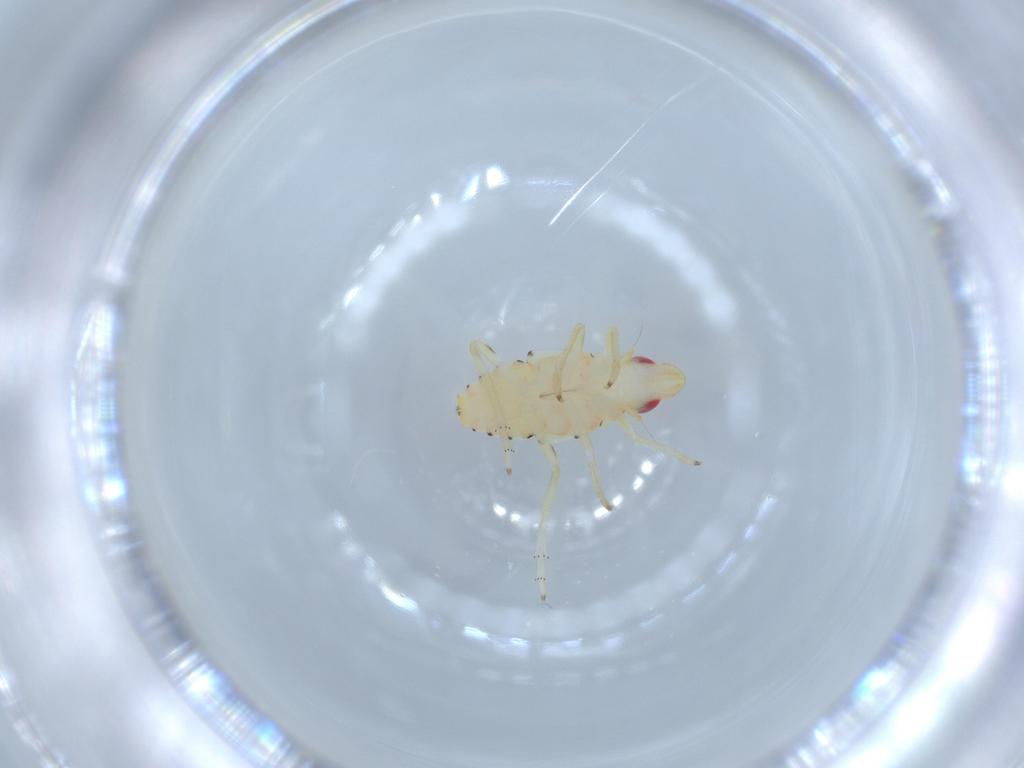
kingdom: Animalia
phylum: Arthropoda
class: Insecta
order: Hemiptera
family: Tropiduchidae
